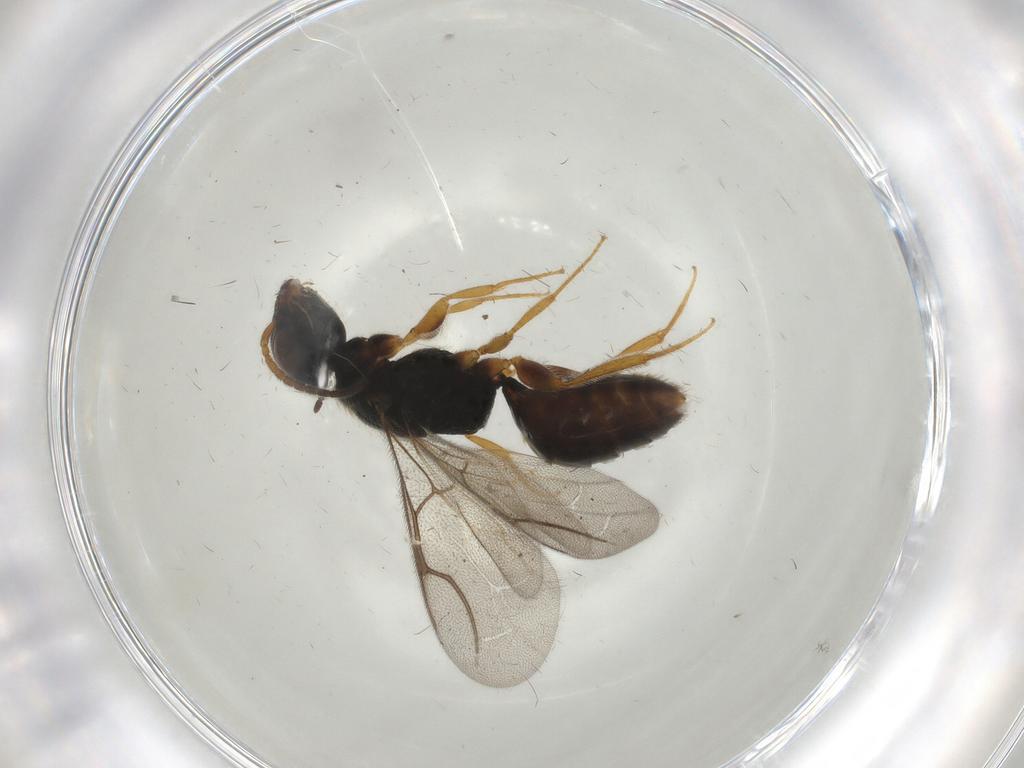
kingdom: Animalia
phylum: Arthropoda
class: Insecta
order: Hymenoptera
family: Bethylidae
